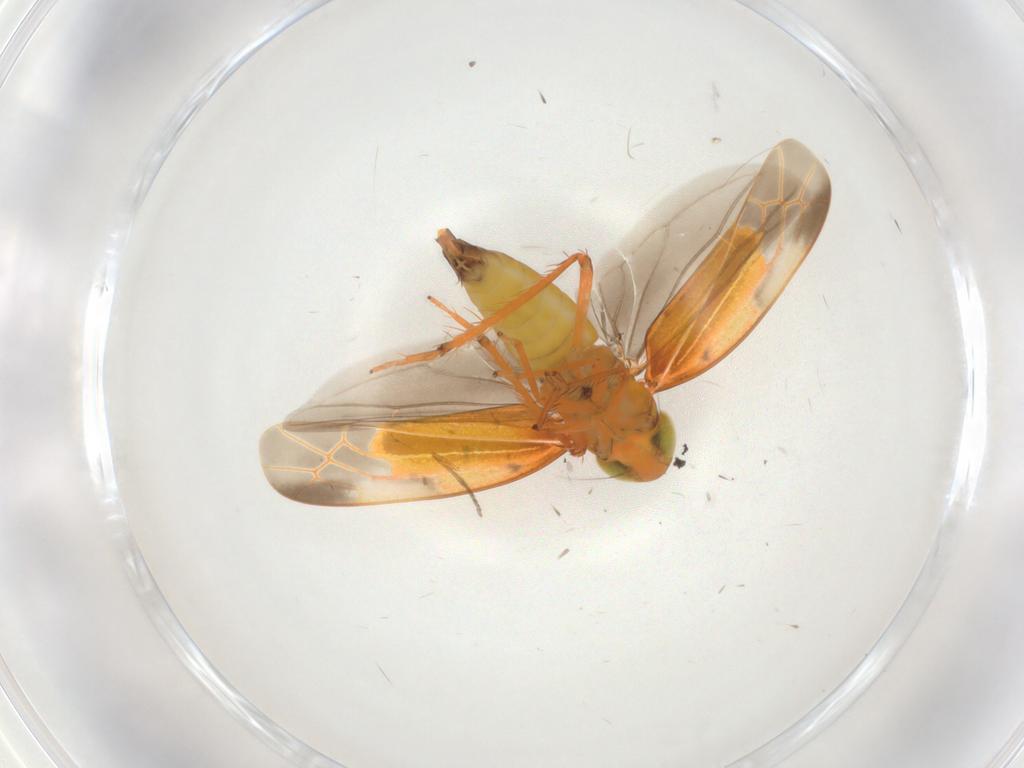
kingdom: Animalia
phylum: Arthropoda
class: Insecta
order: Hemiptera
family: Cicadellidae
